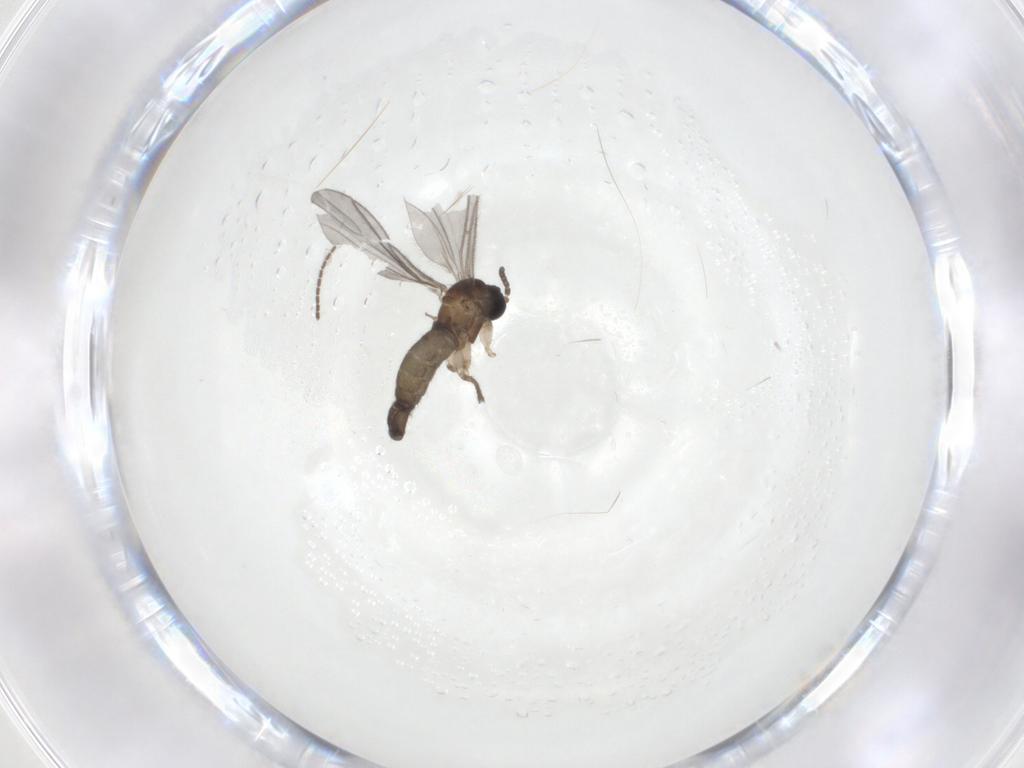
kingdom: Animalia
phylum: Arthropoda
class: Insecta
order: Diptera
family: Sciaridae
